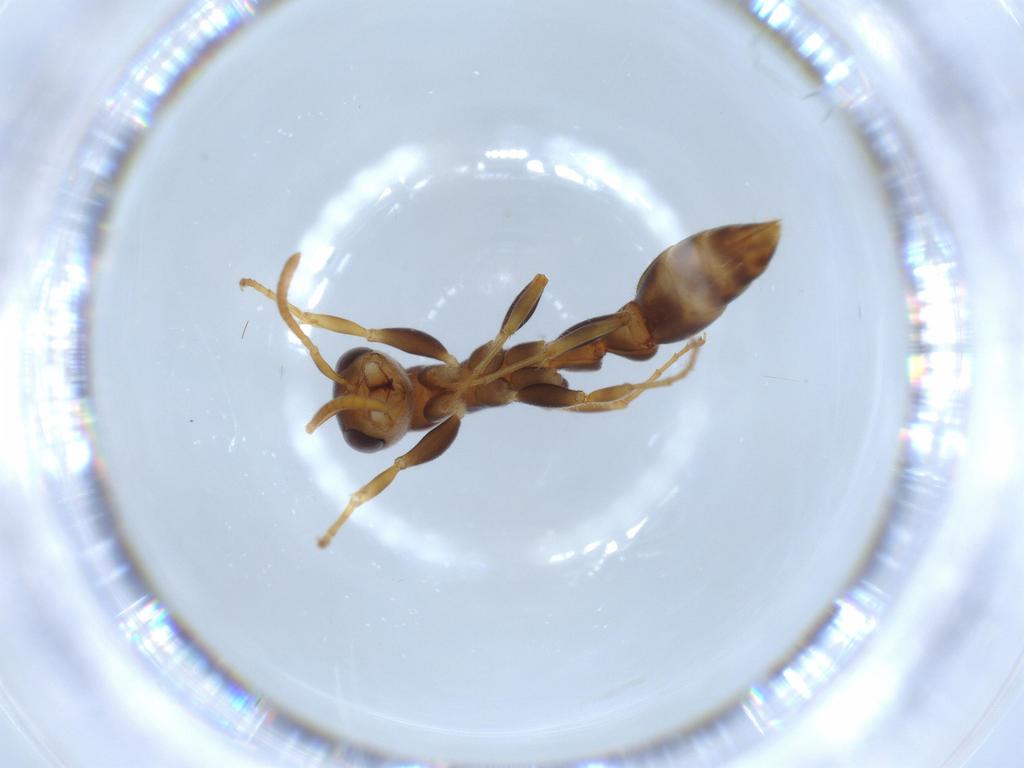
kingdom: Animalia
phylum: Arthropoda
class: Insecta
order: Hymenoptera
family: Formicidae
